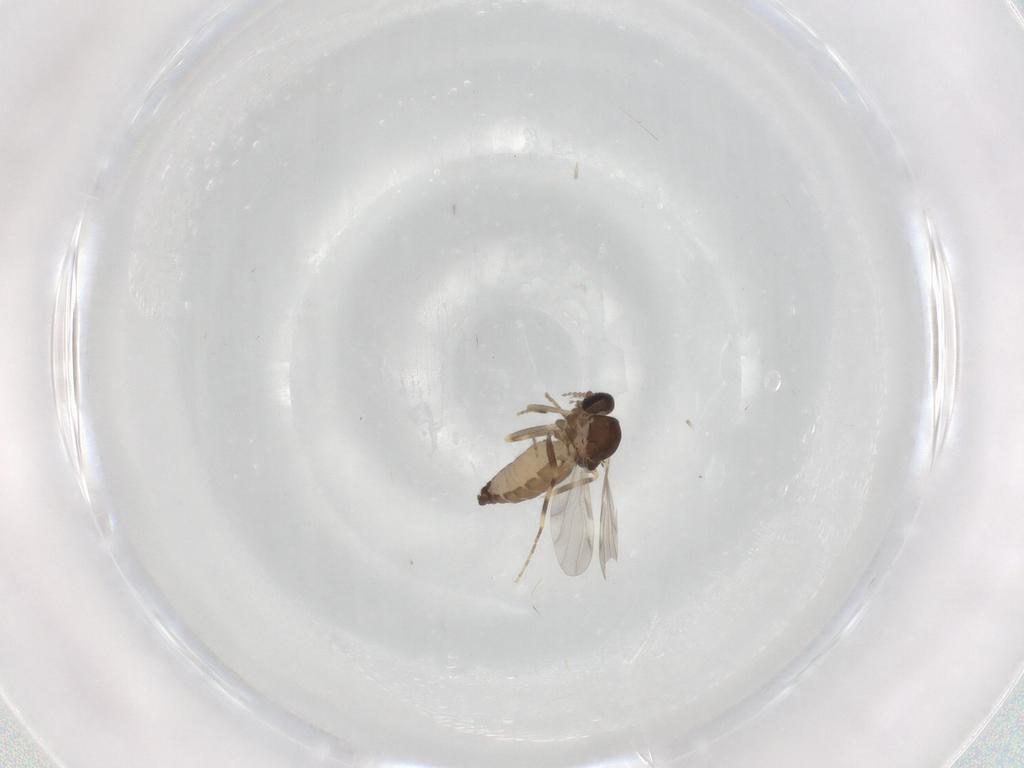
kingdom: Animalia
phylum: Arthropoda
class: Insecta
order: Diptera
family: Ceratopogonidae
